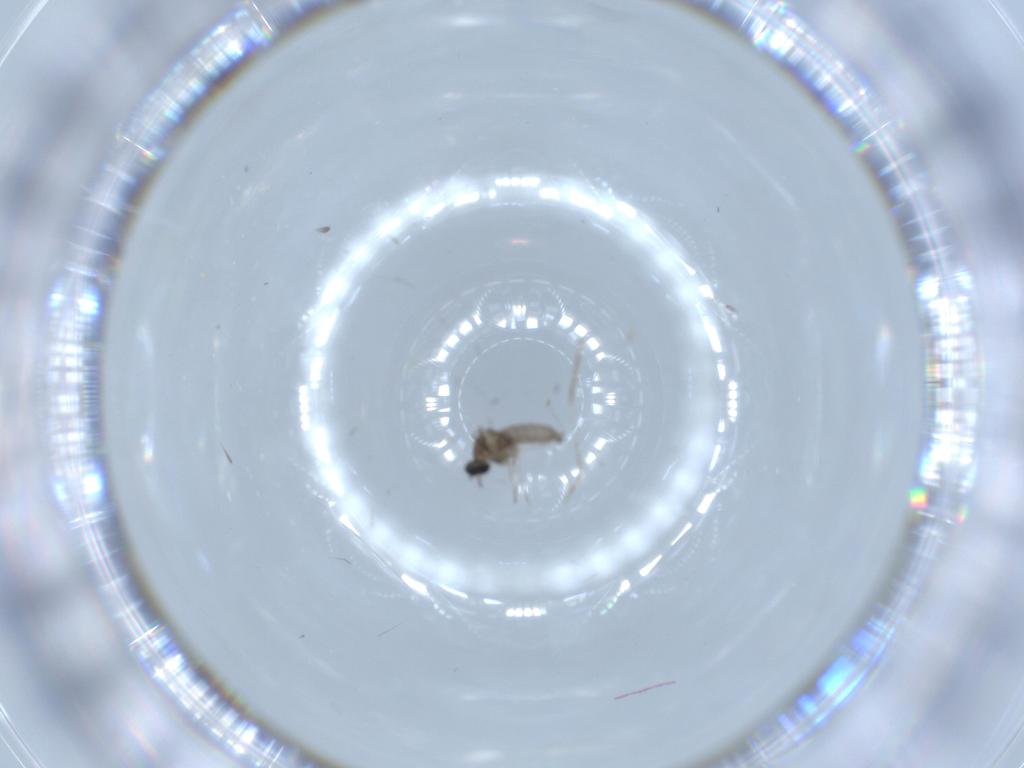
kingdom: Animalia
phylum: Arthropoda
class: Insecta
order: Diptera
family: Cecidomyiidae
